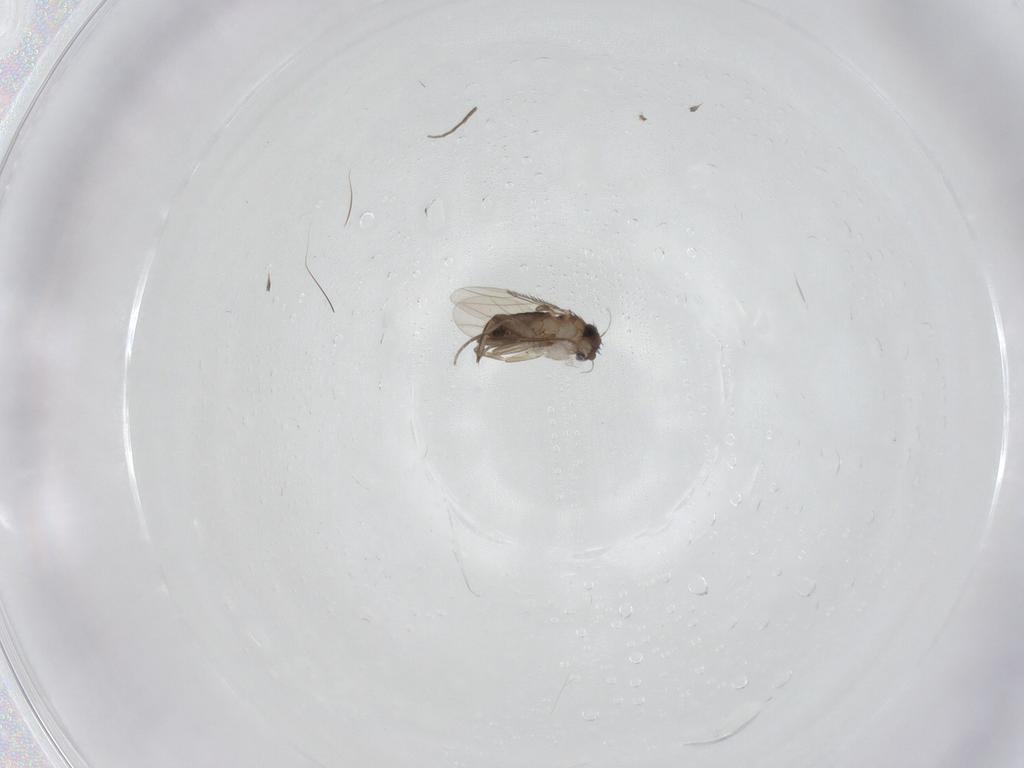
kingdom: Animalia
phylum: Arthropoda
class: Insecta
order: Diptera
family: Phoridae
